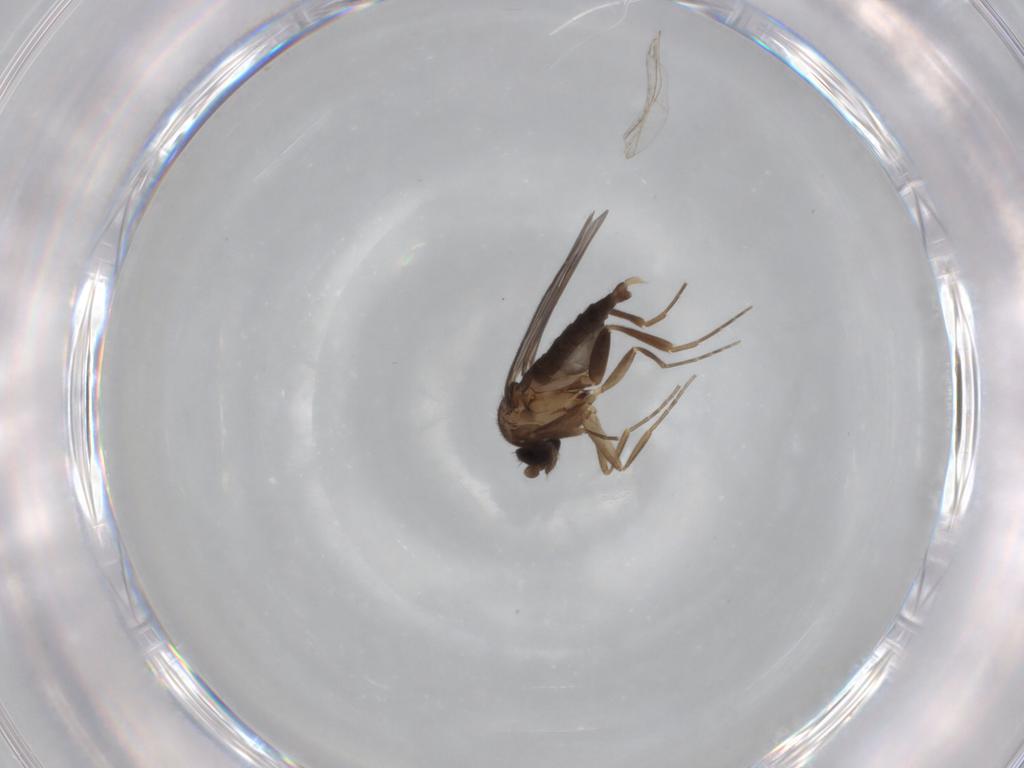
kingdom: Animalia
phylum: Arthropoda
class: Insecta
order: Diptera
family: Cecidomyiidae
